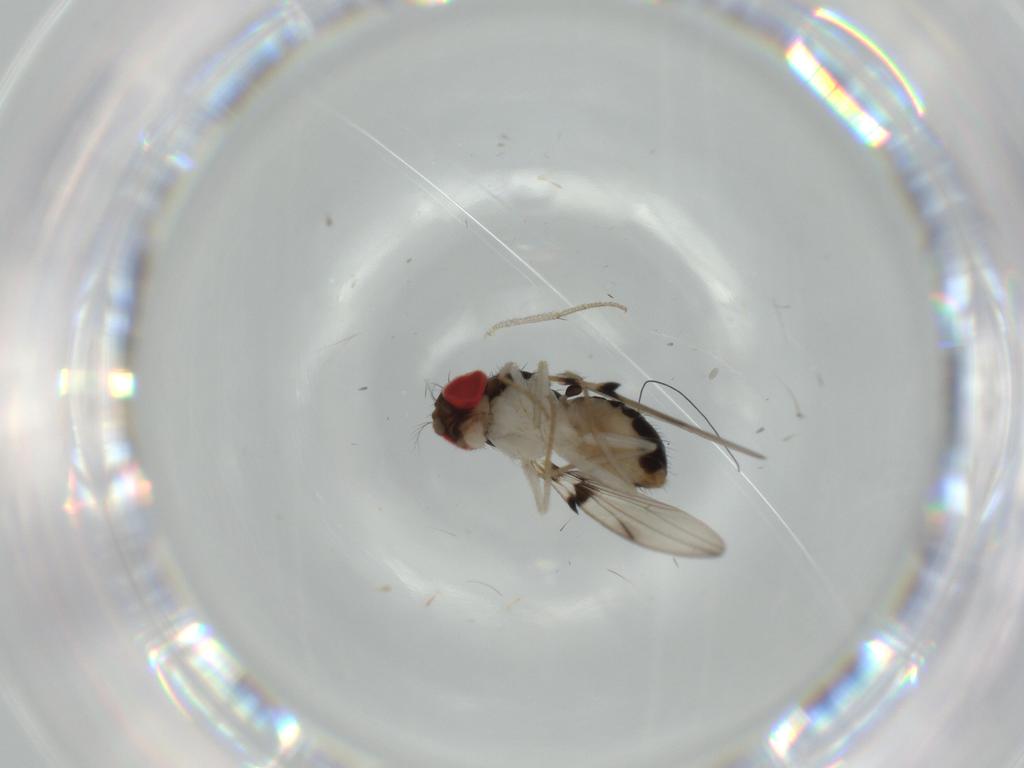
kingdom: Animalia
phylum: Arthropoda
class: Insecta
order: Diptera
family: Drosophilidae
